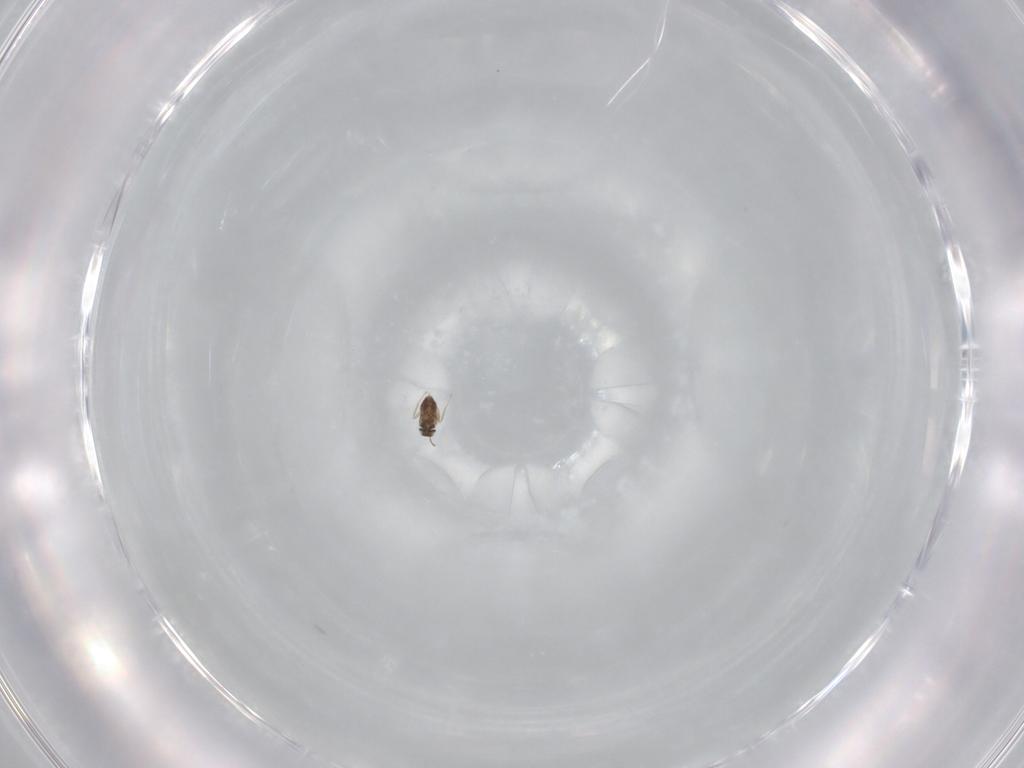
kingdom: Animalia
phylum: Arthropoda
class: Insecta
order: Hymenoptera
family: Mymaridae
